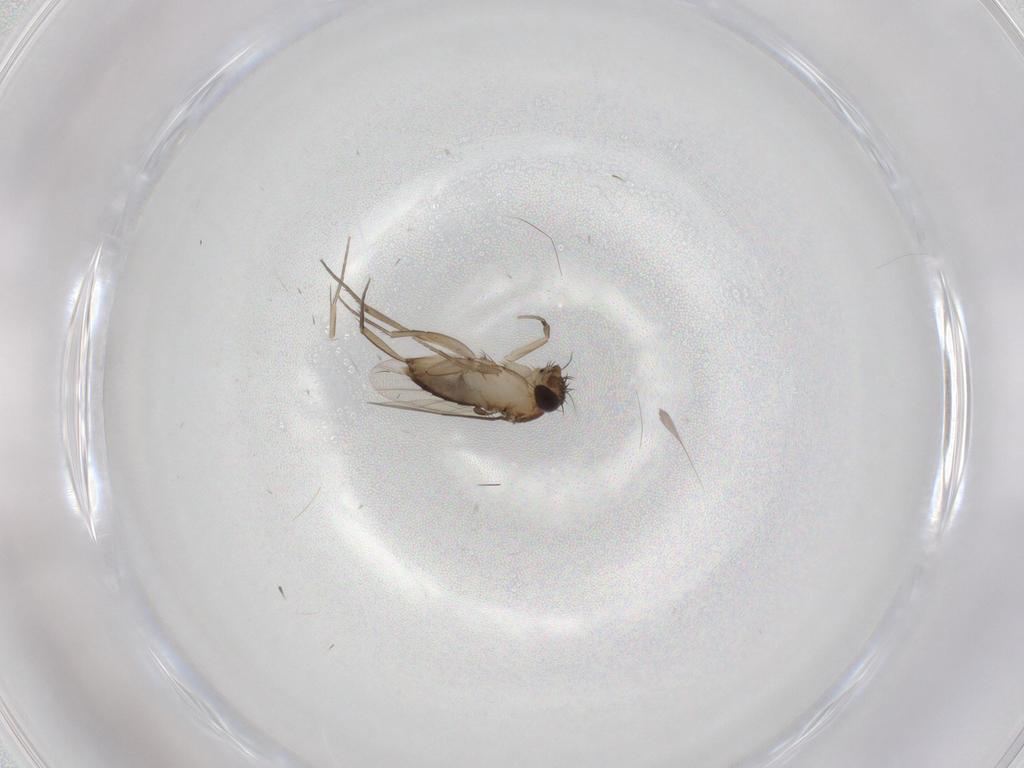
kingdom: Animalia
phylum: Arthropoda
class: Insecta
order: Diptera
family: Phoridae
